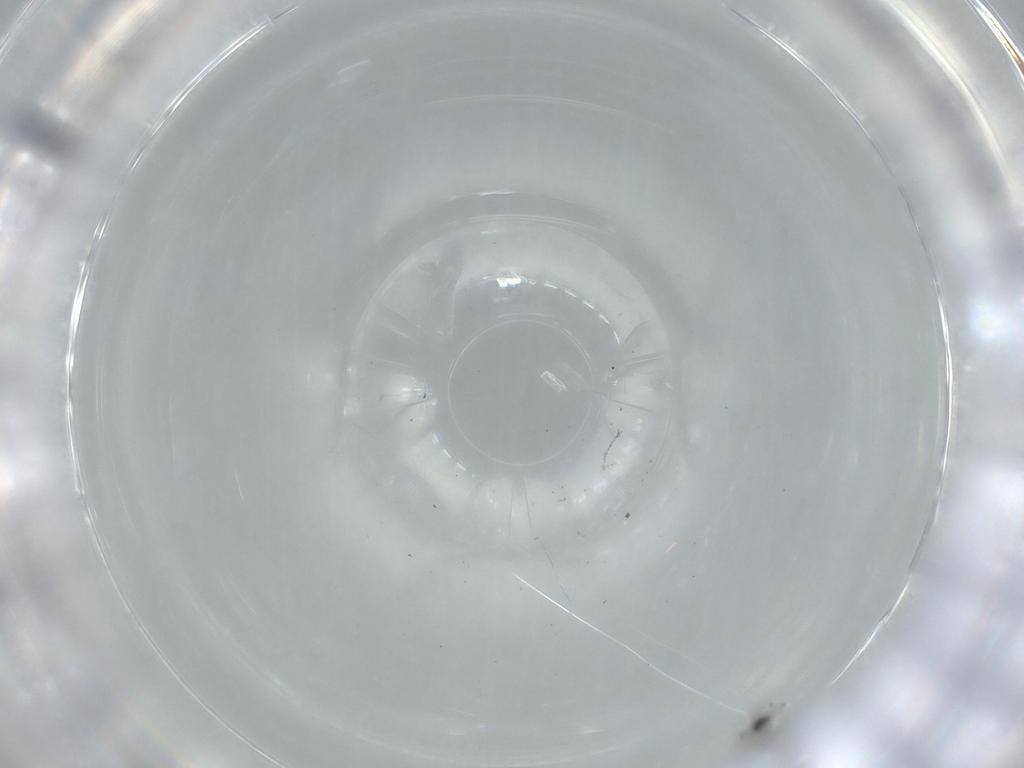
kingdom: Animalia
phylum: Arthropoda
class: Insecta
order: Diptera
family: Cecidomyiidae
